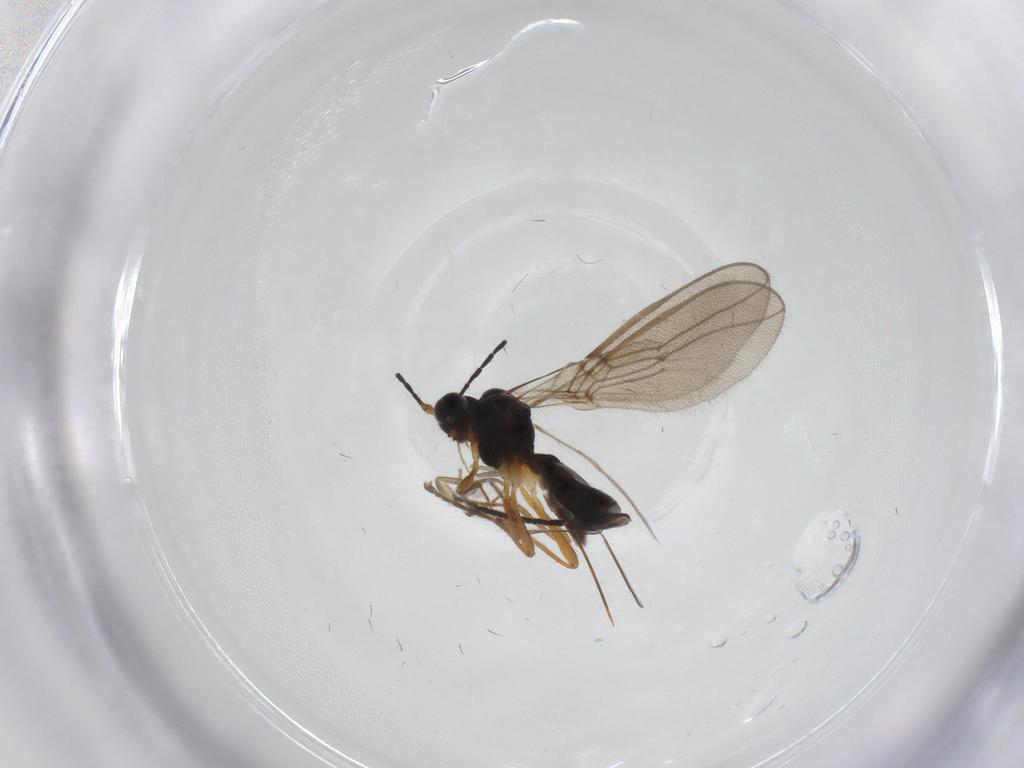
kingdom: Animalia
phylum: Arthropoda
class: Insecta
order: Hymenoptera
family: Braconidae
